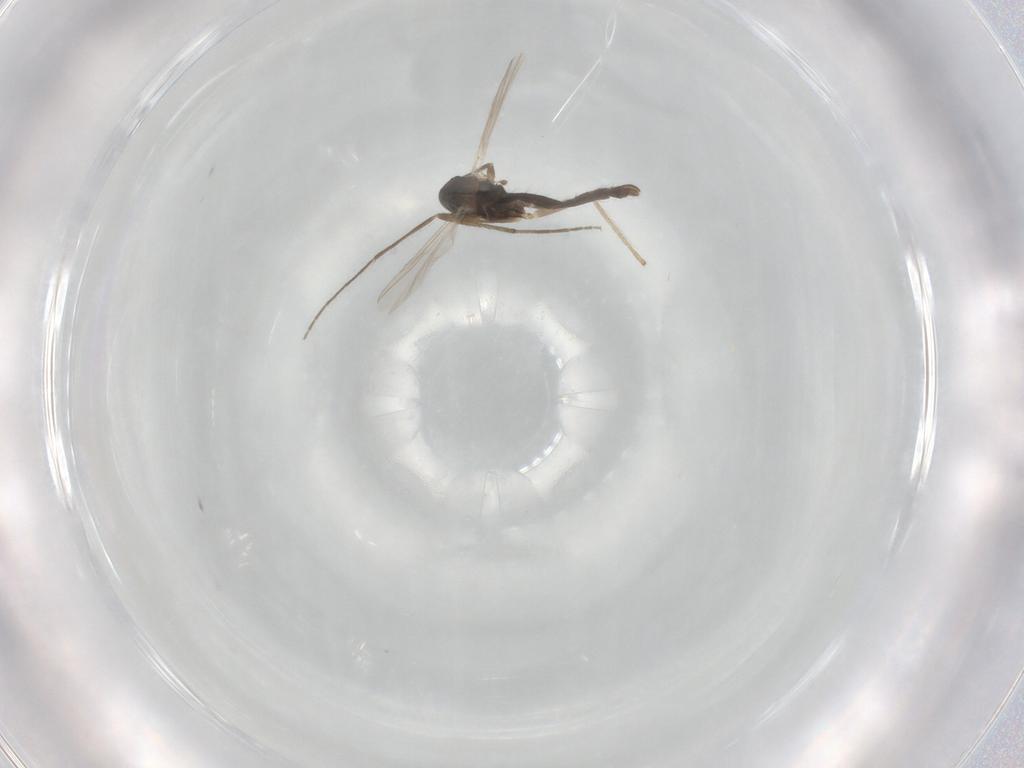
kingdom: Animalia
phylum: Arthropoda
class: Insecta
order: Diptera
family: Chironomidae
